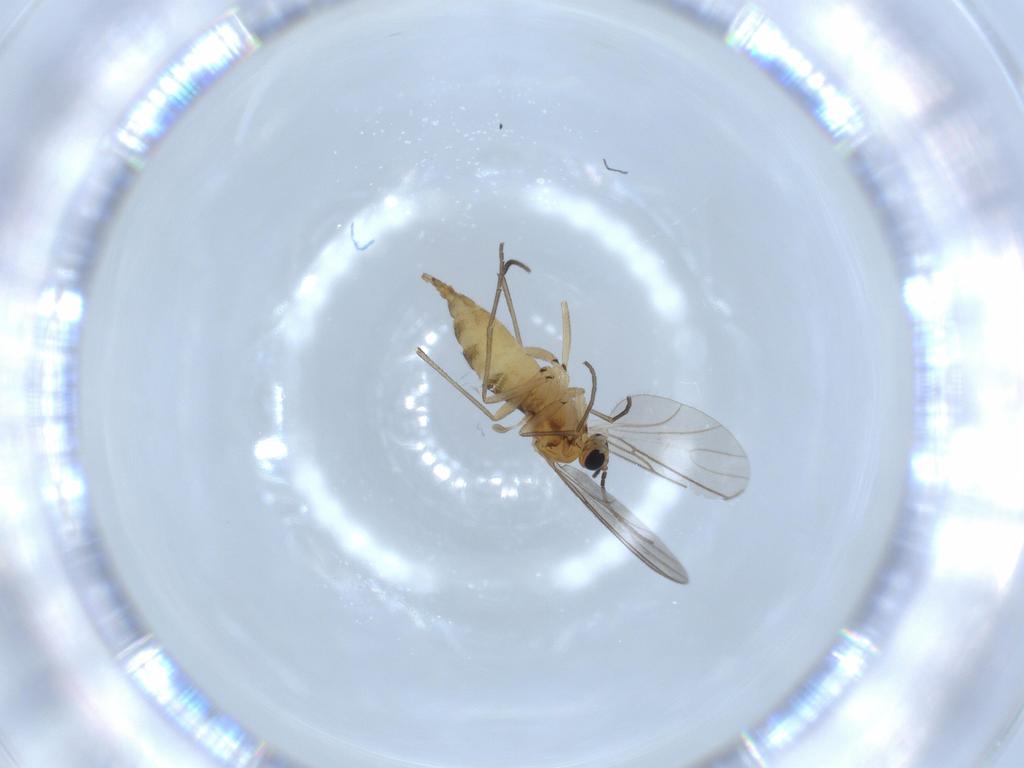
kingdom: Animalia
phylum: Arthropoda
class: Insecta
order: Diptera
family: Sciaridae
